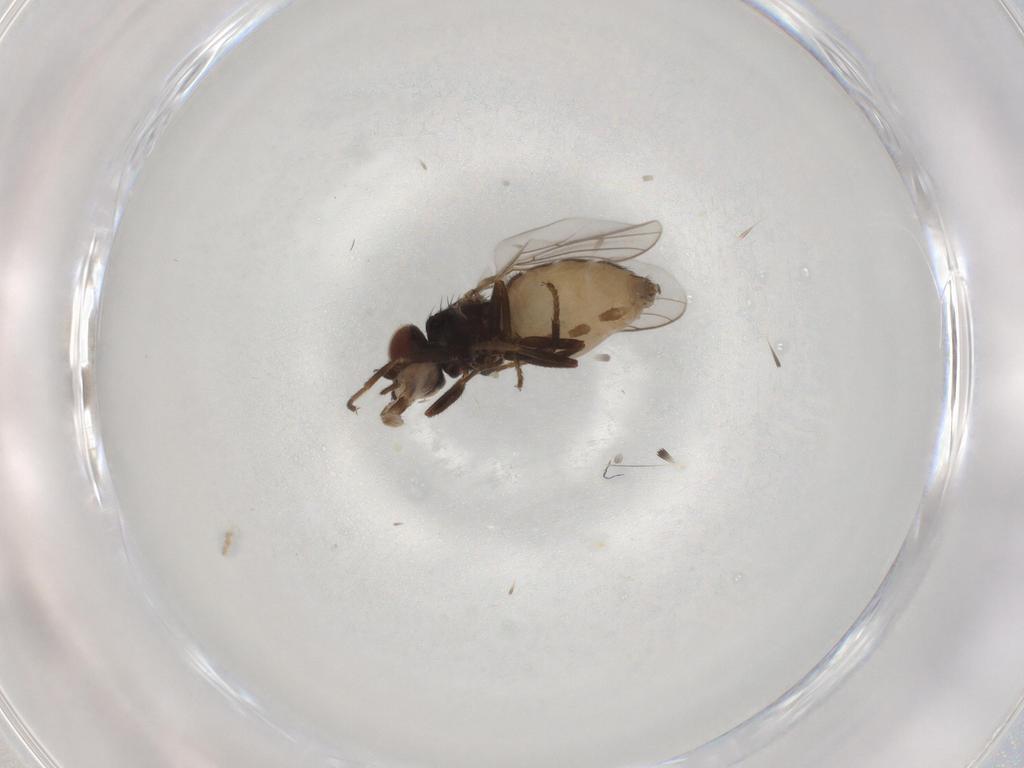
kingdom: Animalia
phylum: Arthropoda
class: Insecta
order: Diptera
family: Chloropidae
